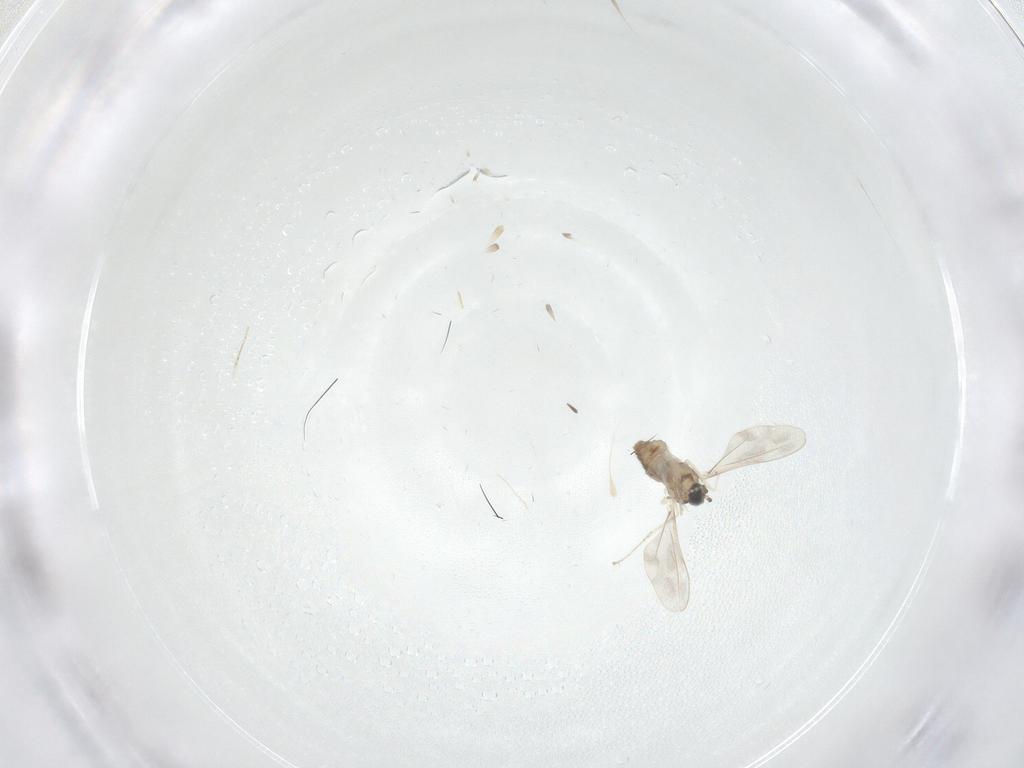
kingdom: Animalia
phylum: Arthropoda
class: Insecta
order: Diptera
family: Cecidomyiidae
